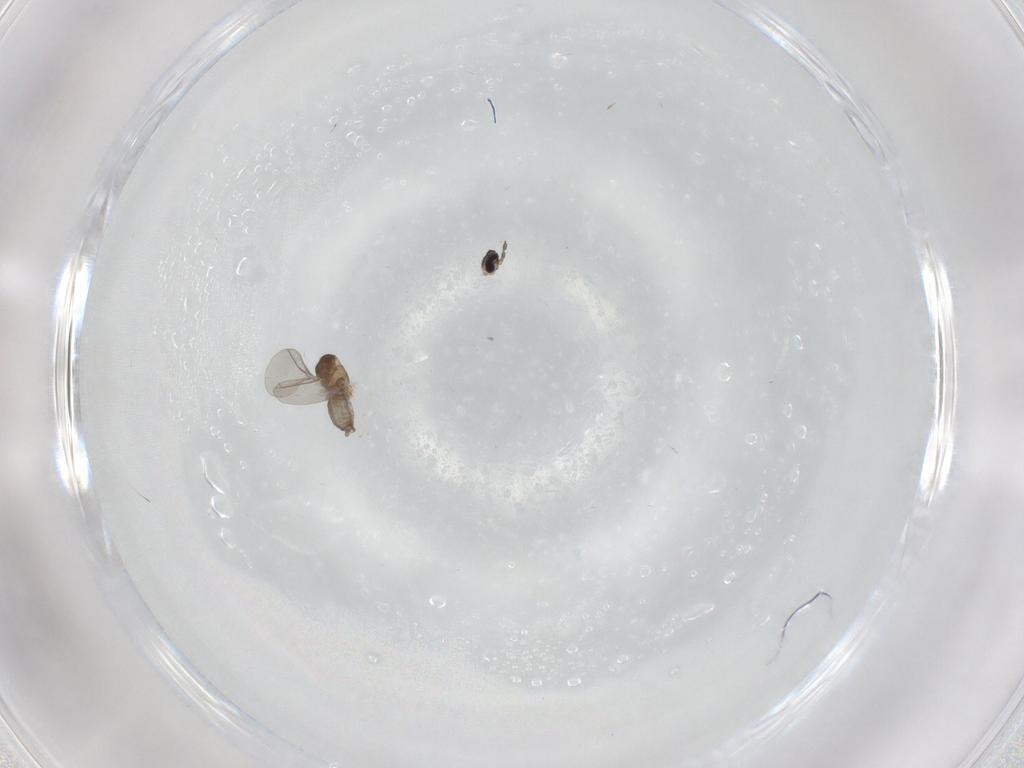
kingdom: Animalia
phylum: Arthropoda
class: Insecta
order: Diptera
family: Cecidomyiidae
